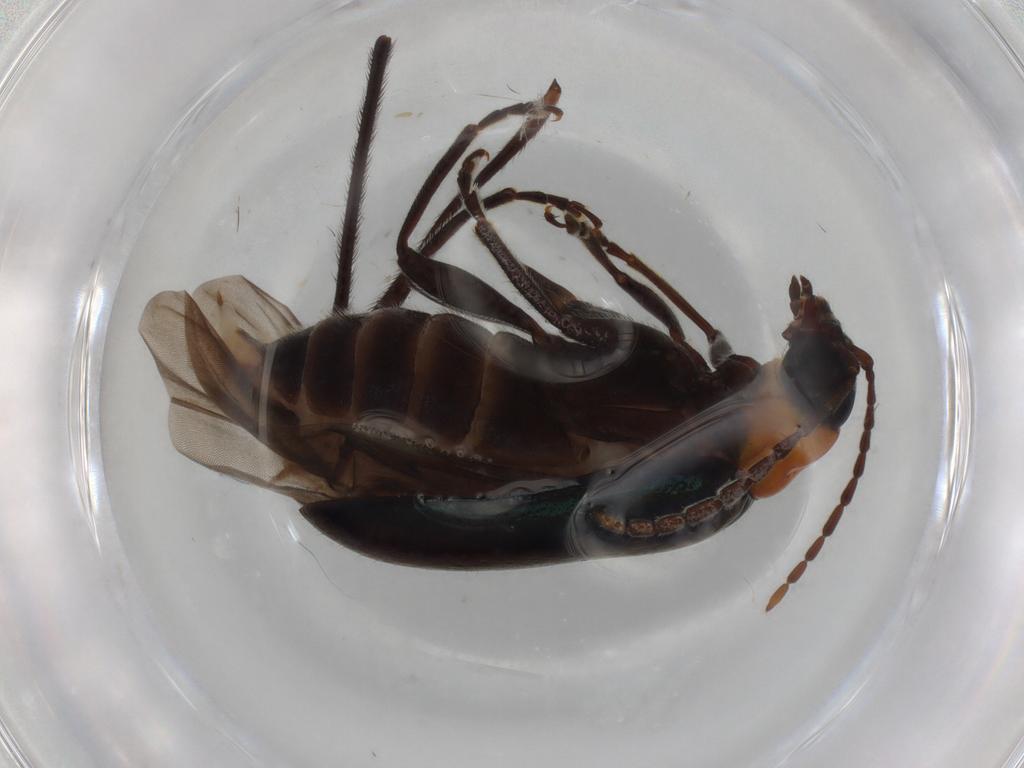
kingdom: Animalia
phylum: Arthropoda
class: Insecta
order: Coleoptera
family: Chrysomelidae
